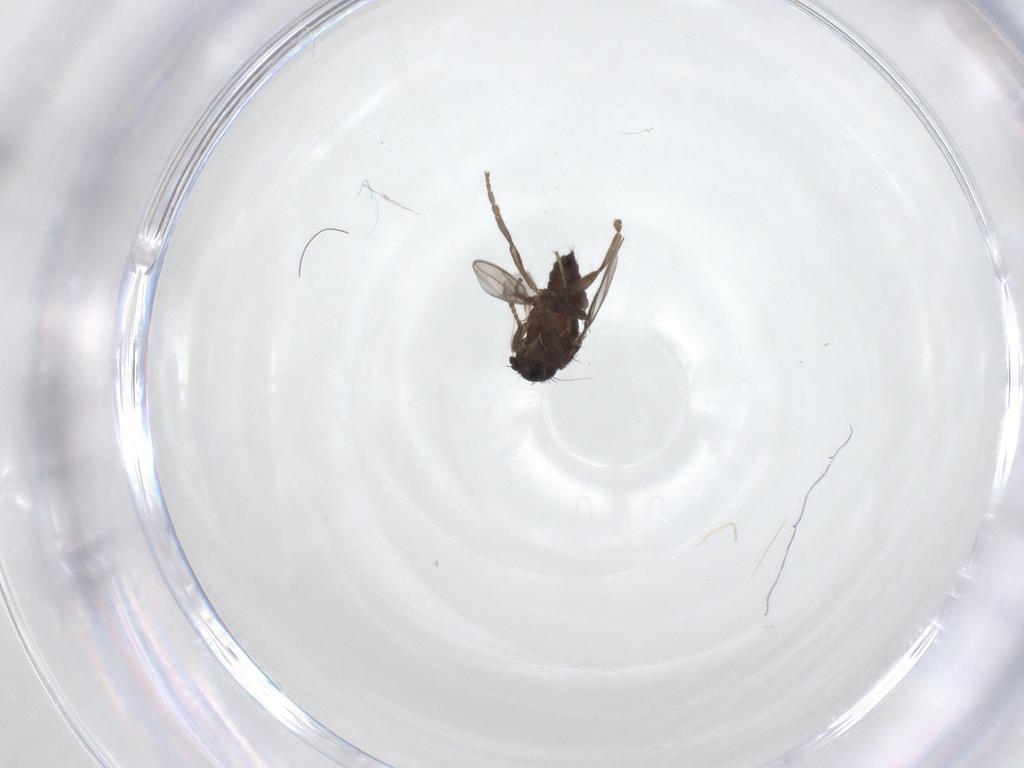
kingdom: Animalia
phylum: Arthropoda
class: Insecta
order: Diptera
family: Sphaeroceridae
